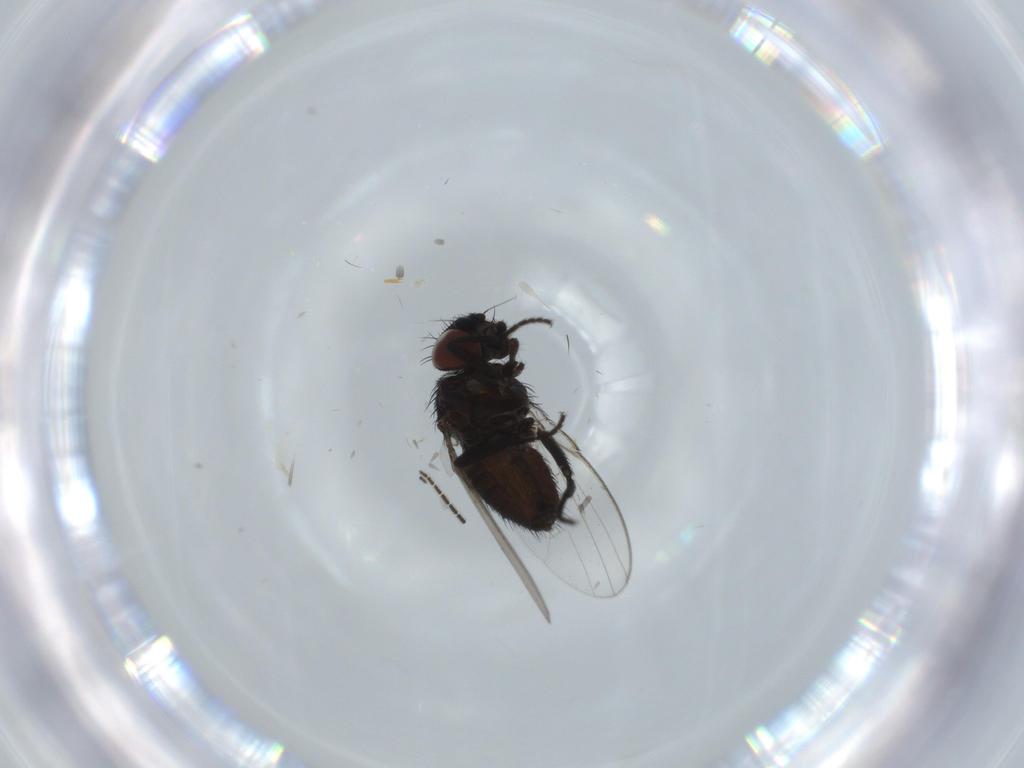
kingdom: Animalia
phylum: Arthropoda
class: Insecta
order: Diptera
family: Milichiidae
